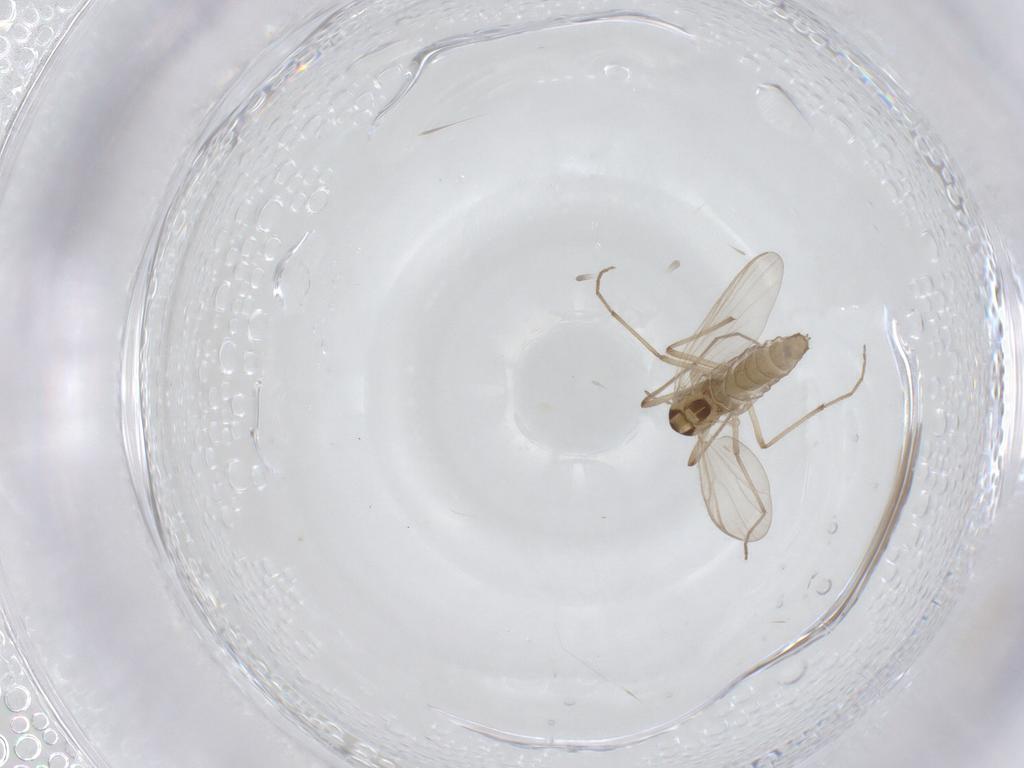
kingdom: Animalia
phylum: Arthropoda
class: Insecta
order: Diptera
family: Chironomidae
